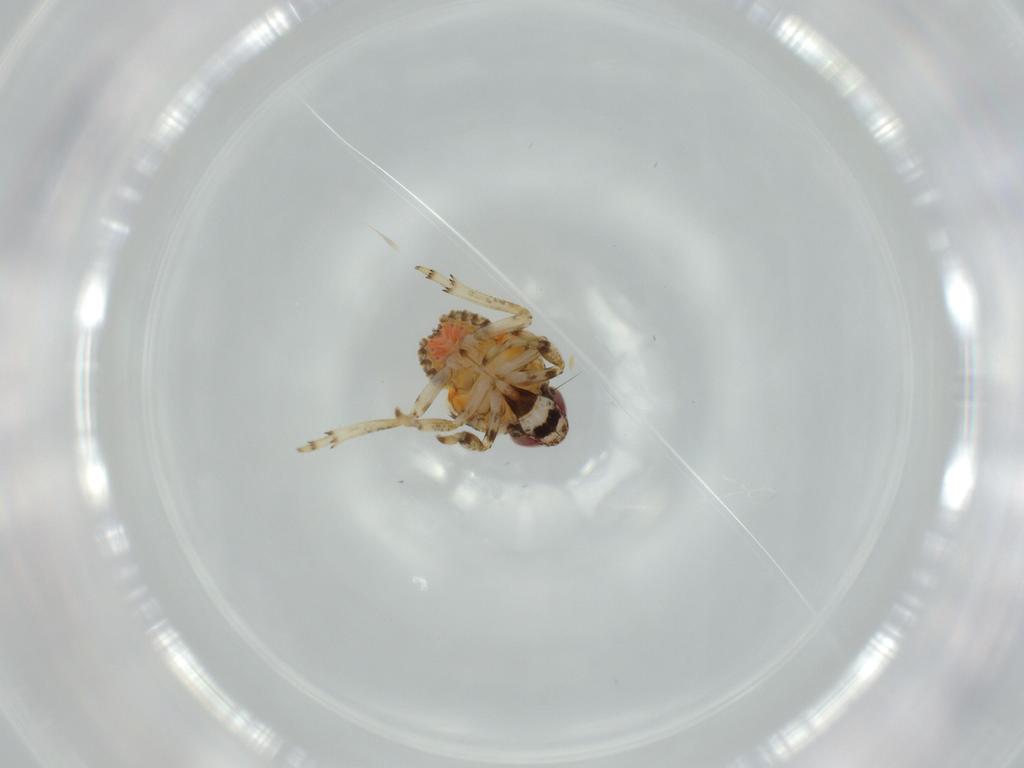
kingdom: Animalia
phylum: Arthropoda
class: Insecta
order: Hemiptera
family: Issidae
